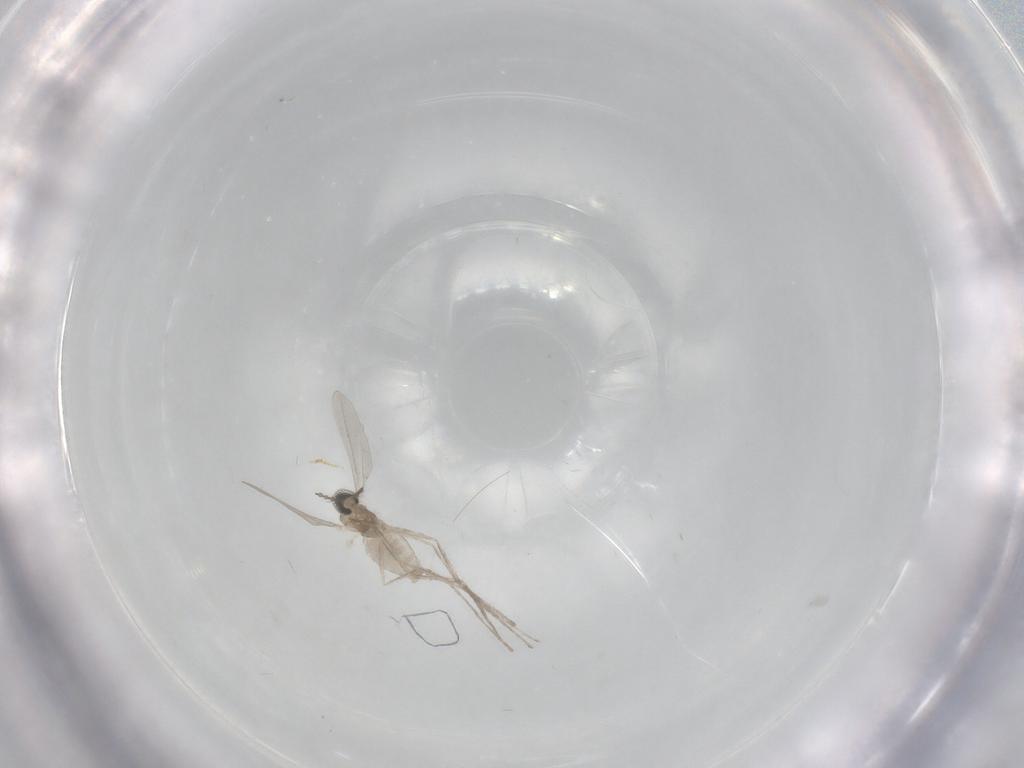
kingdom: Animalia
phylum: Arthropoda
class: Insecta
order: Diptera
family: Cecidomyiidae
